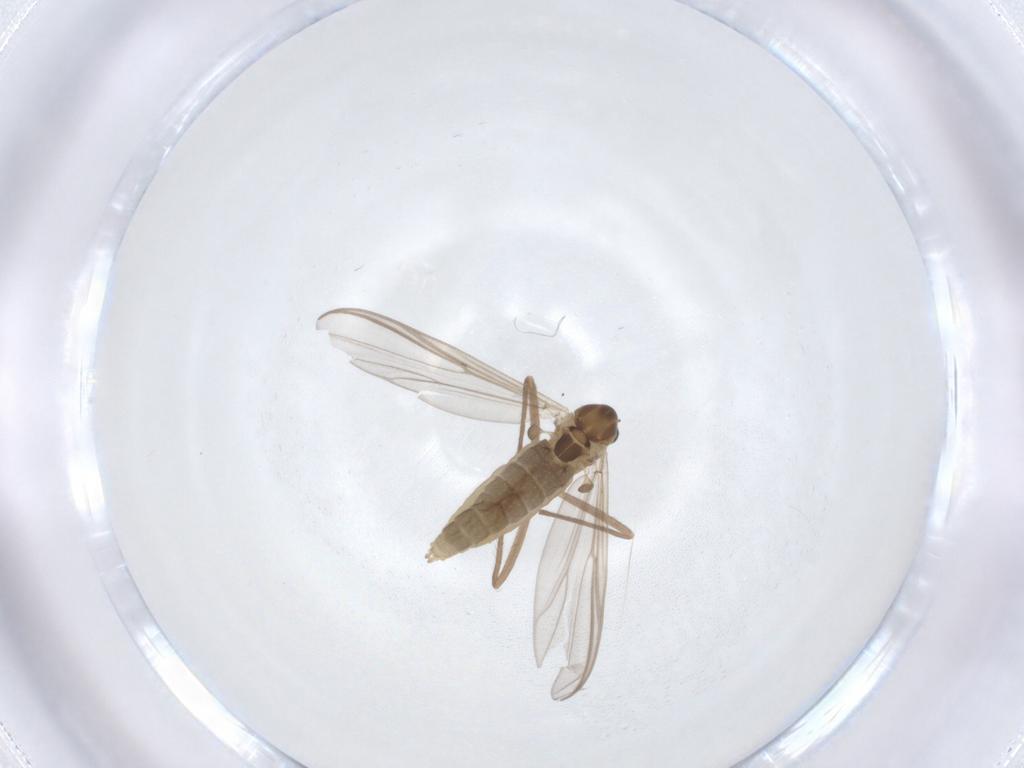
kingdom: Animalia
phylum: Arthropoda
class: Insecta
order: Diptera
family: Chironomidae
